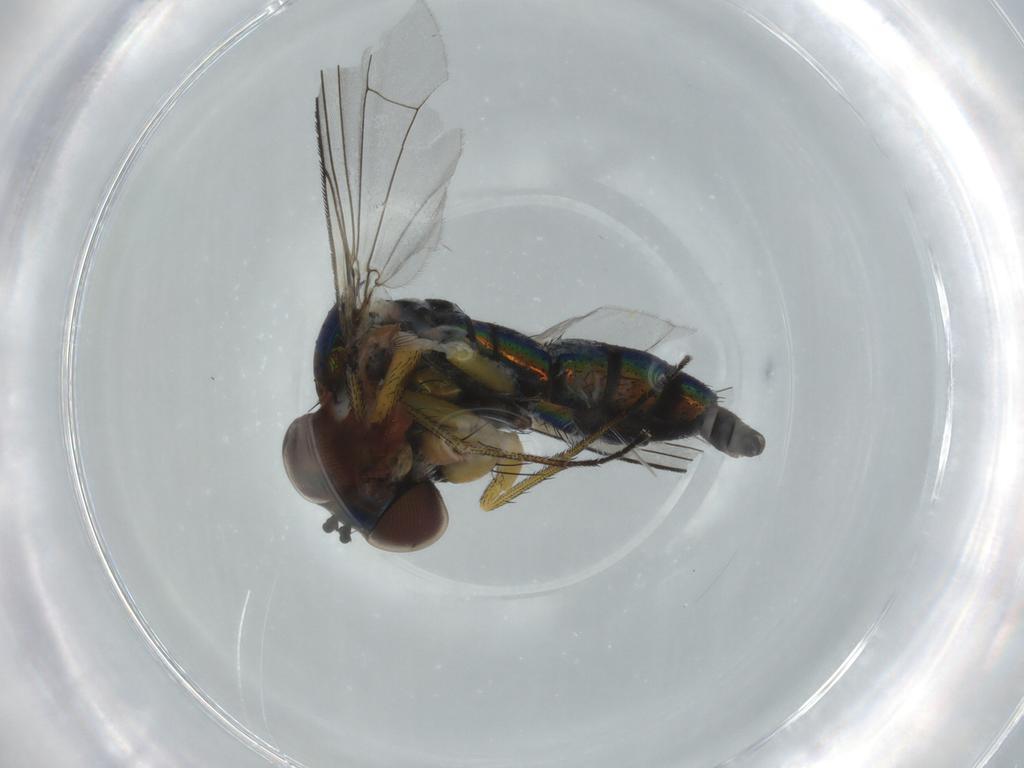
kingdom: Animalia
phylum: Arthropoda
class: Insecta
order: Diptera
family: Dolichopodidae
